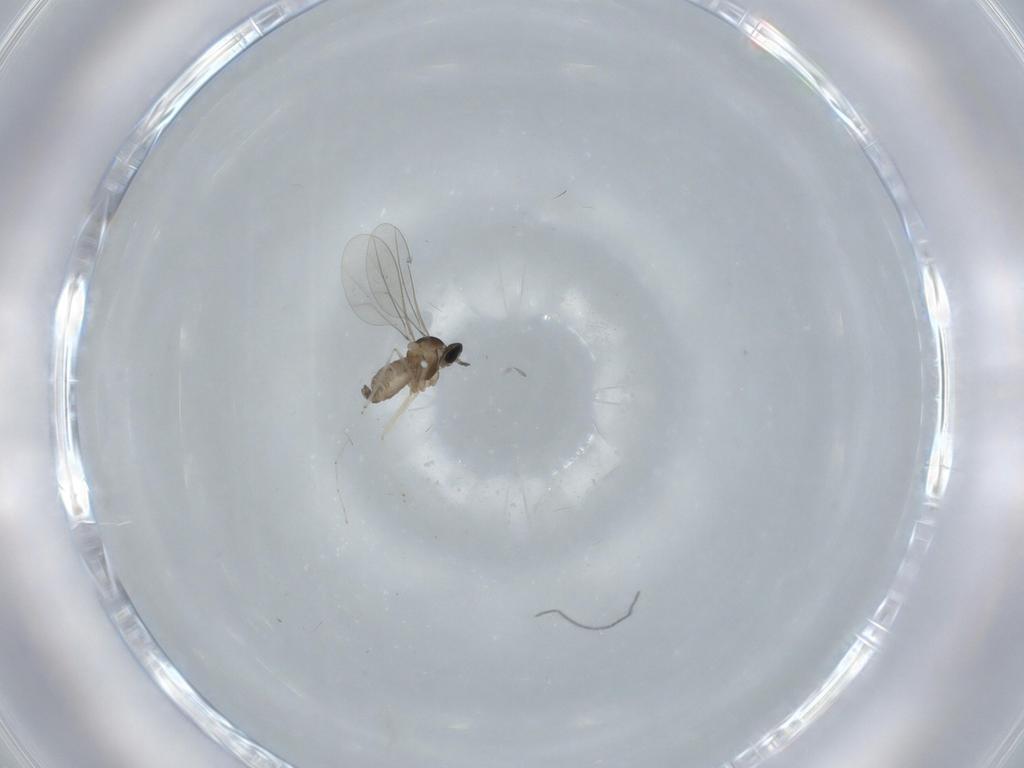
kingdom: Animalia
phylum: Arthropoda
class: Insecta
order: Diptera
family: Chironomidae
